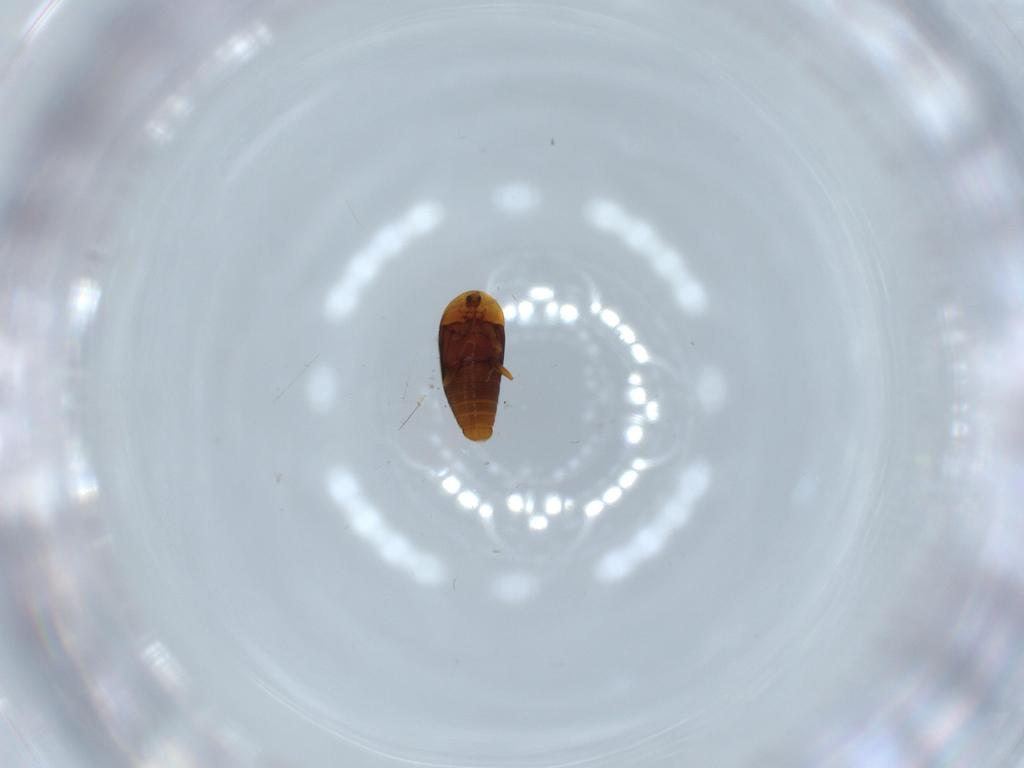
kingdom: Animalia
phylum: Arthropoda
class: Insecta
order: Coleoptera
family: Corylophidae
